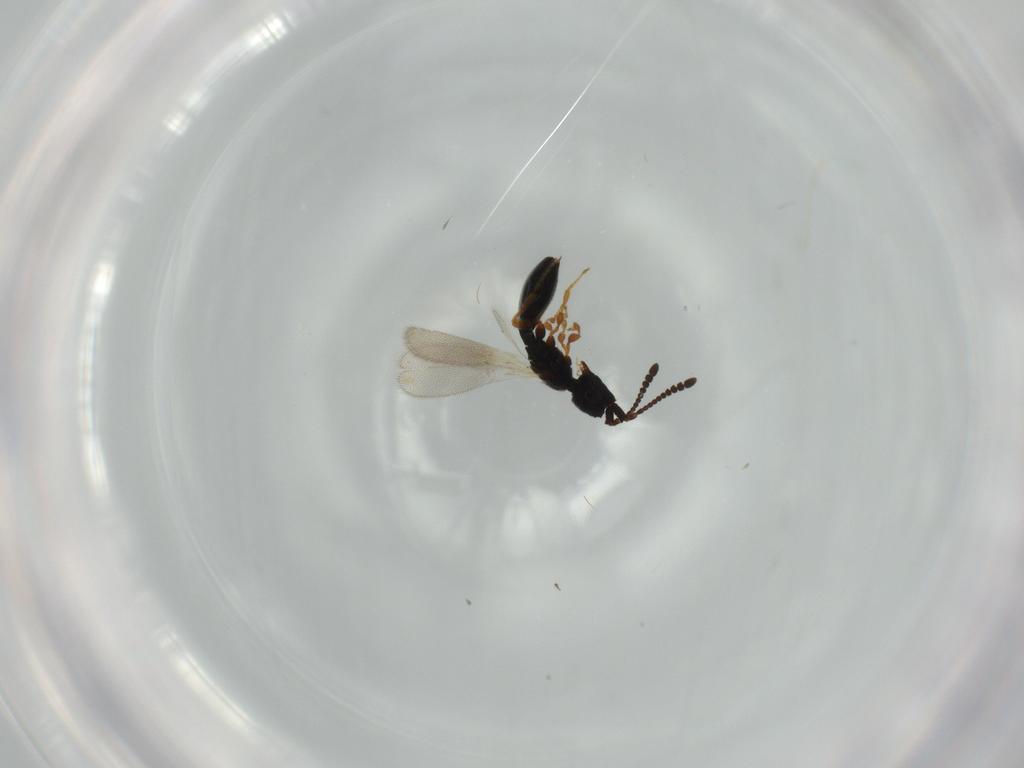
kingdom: Animalia
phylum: Arthropoda
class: Insecta
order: Hymenoptera
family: Diapriidae
